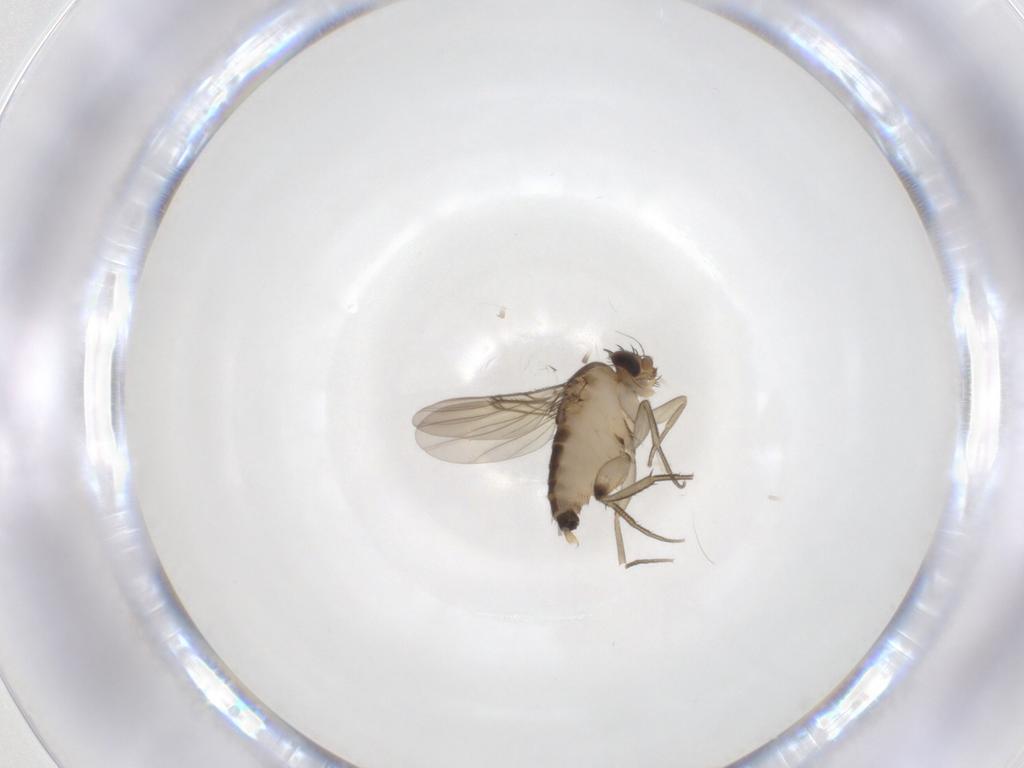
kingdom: Animalia
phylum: Arthropoda
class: Insecta
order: Diptera
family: Phoridae
